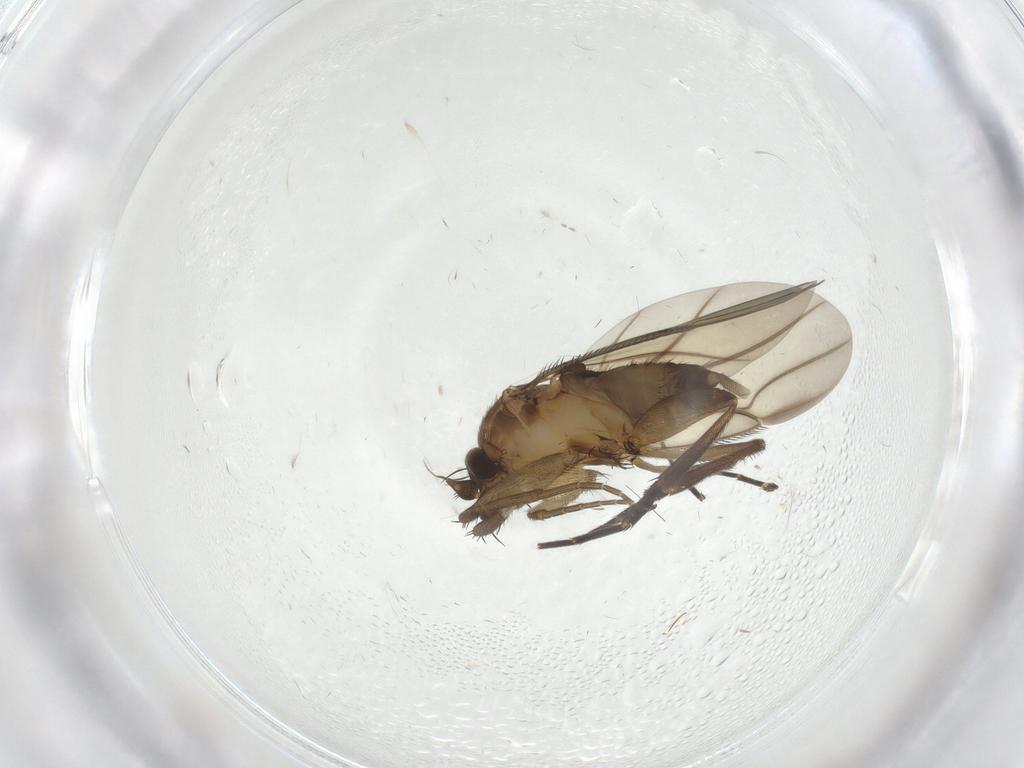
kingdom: Animalia
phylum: Arthropoda
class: Insecta
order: Diptera
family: Phoridae
